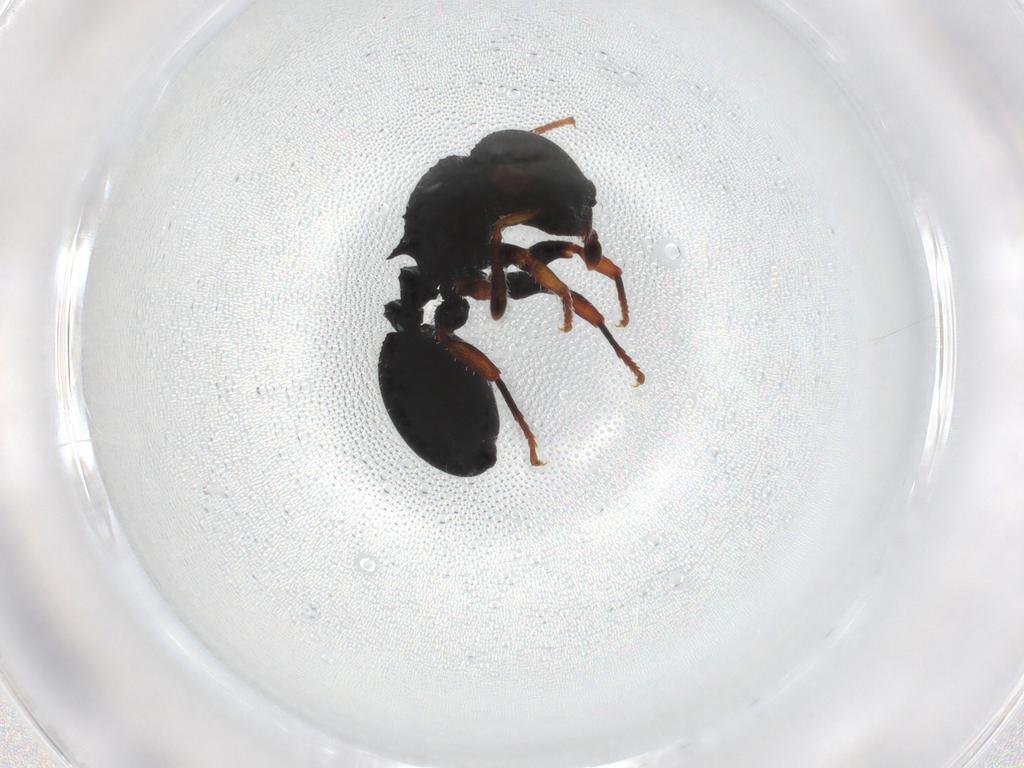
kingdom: Animalia
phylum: Arthropoda
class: Insecta
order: Hymenoptera
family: Formicidae
